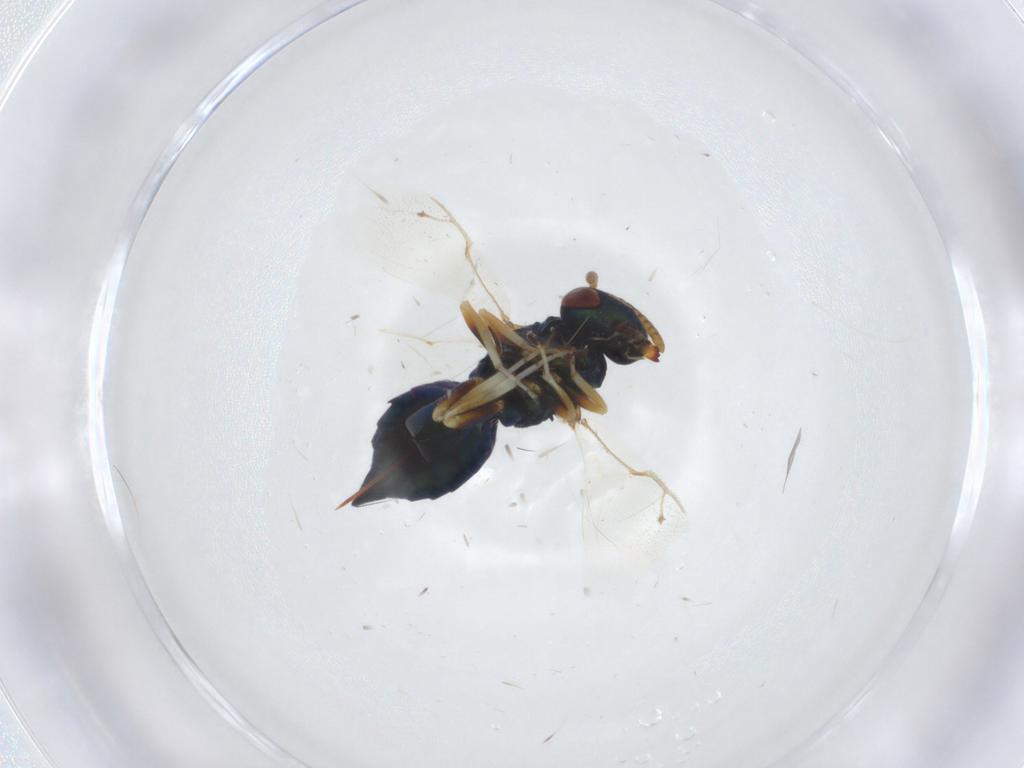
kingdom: Animalia
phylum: Arthropoda
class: Insecta
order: Hymenoptera
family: Pteromalidae
